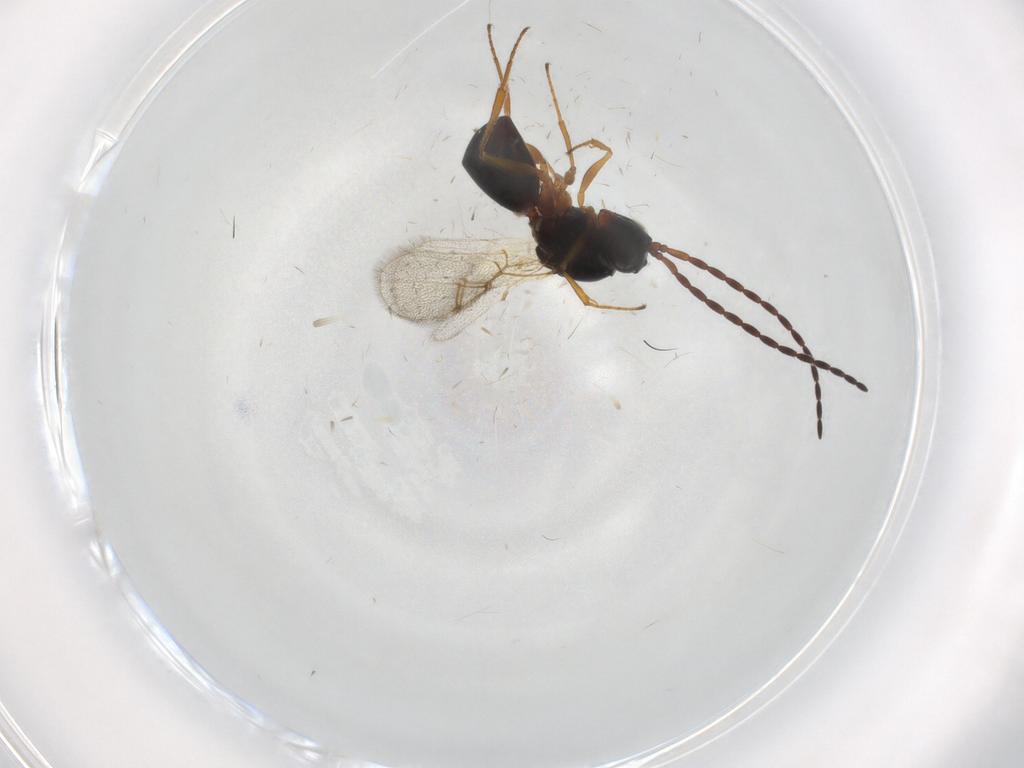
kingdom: Animalia
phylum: Arthropoda
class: Insecta
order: Hymenoptera
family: Figitidae
